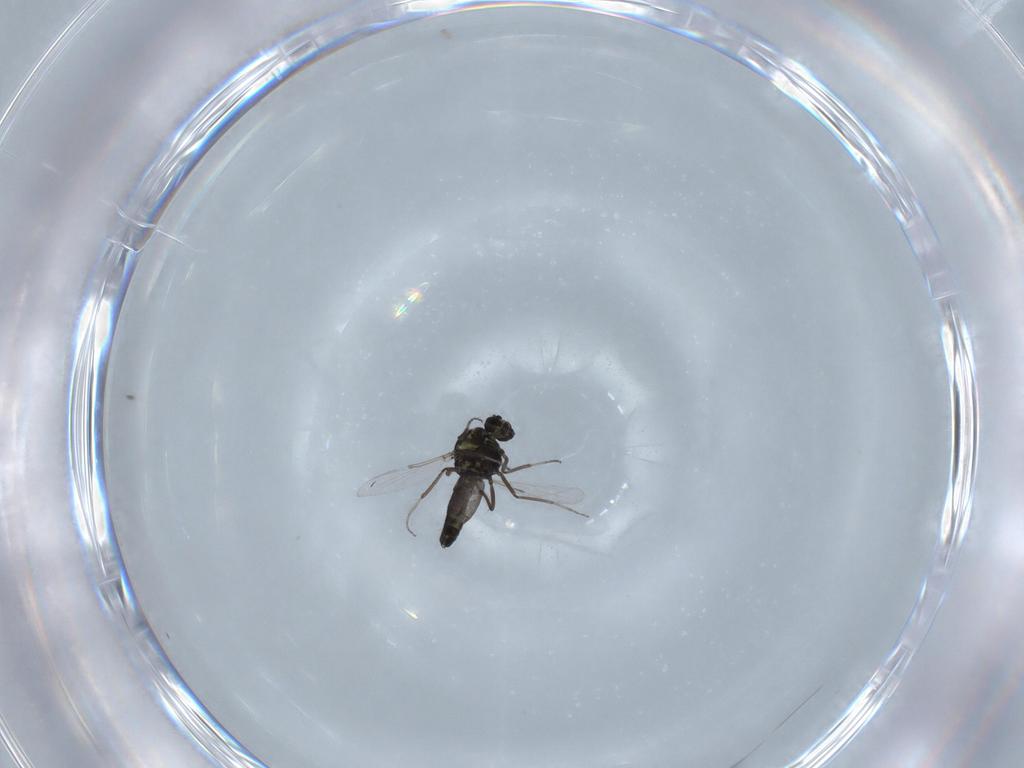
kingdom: Animalia
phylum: Arthropoda
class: Insecta
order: Diptera
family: Ceratopogonidae
